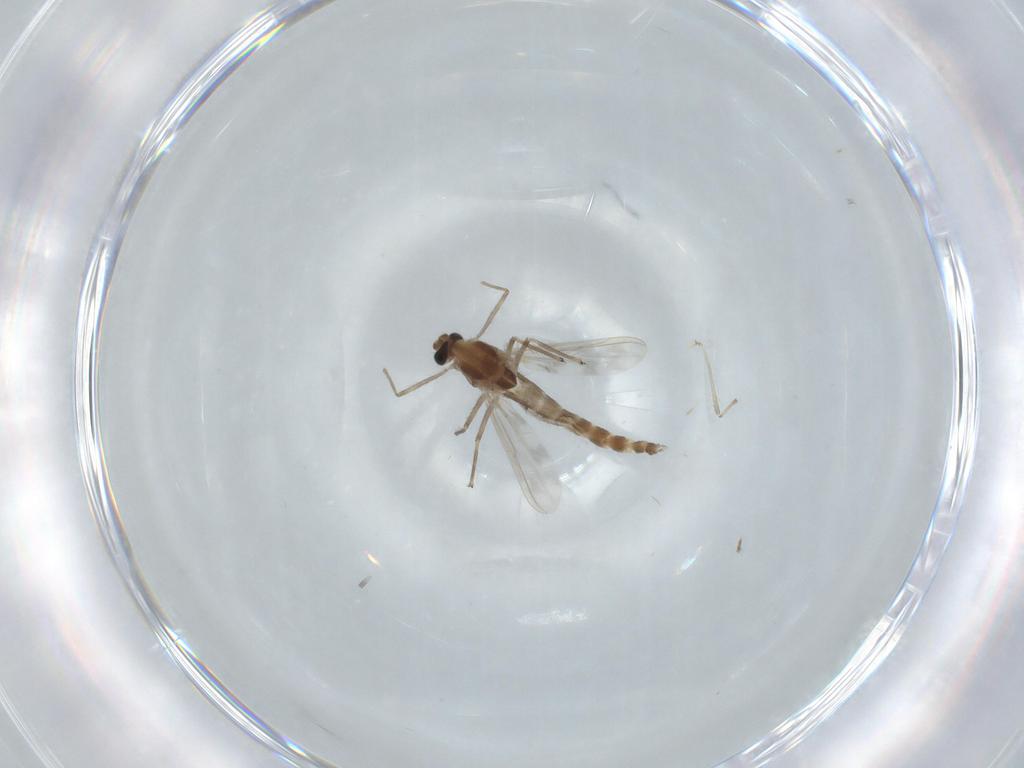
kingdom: Animalia
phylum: Arthropoda
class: Insecta
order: Diptera
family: Chironomidae
